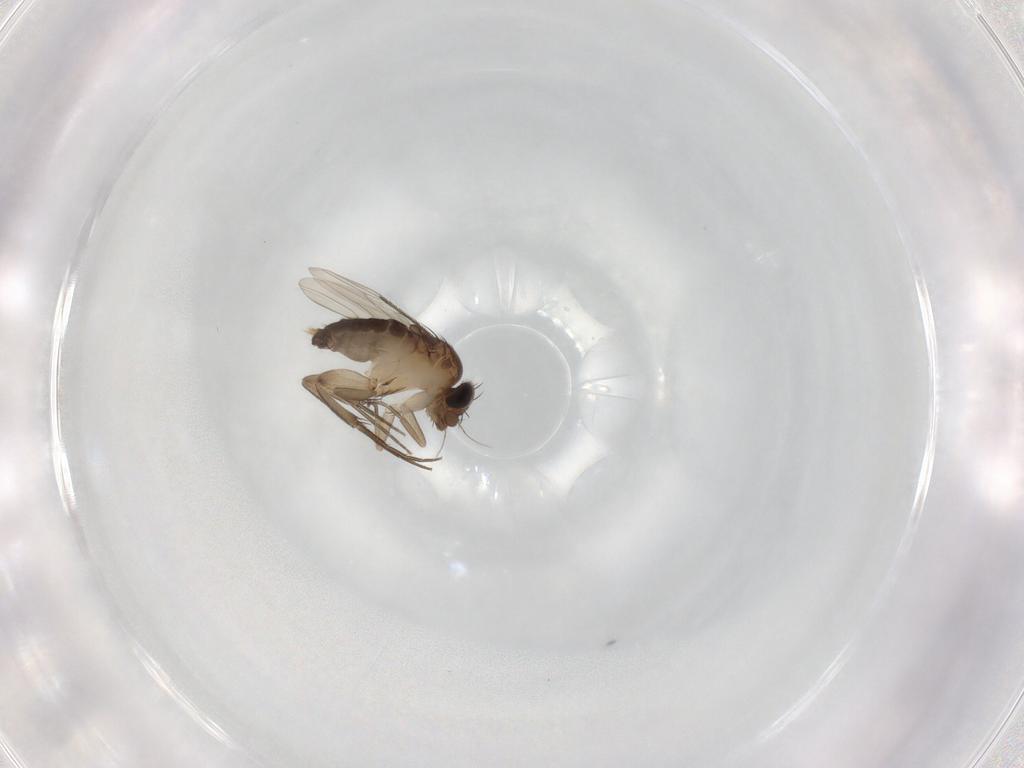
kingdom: Animalia
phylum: Arthropoda
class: Insecta
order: Diptera
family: Phoridae
